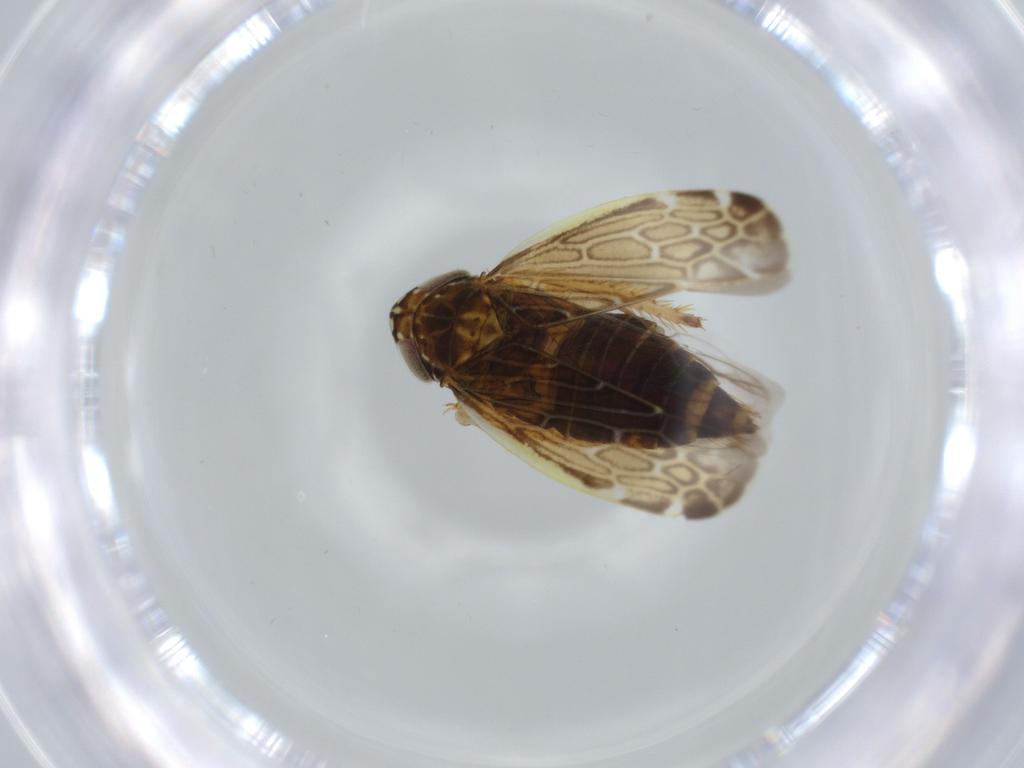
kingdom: Animalia
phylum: Arthropoda
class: Insecta
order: Hemiptera
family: Cicadellidae
